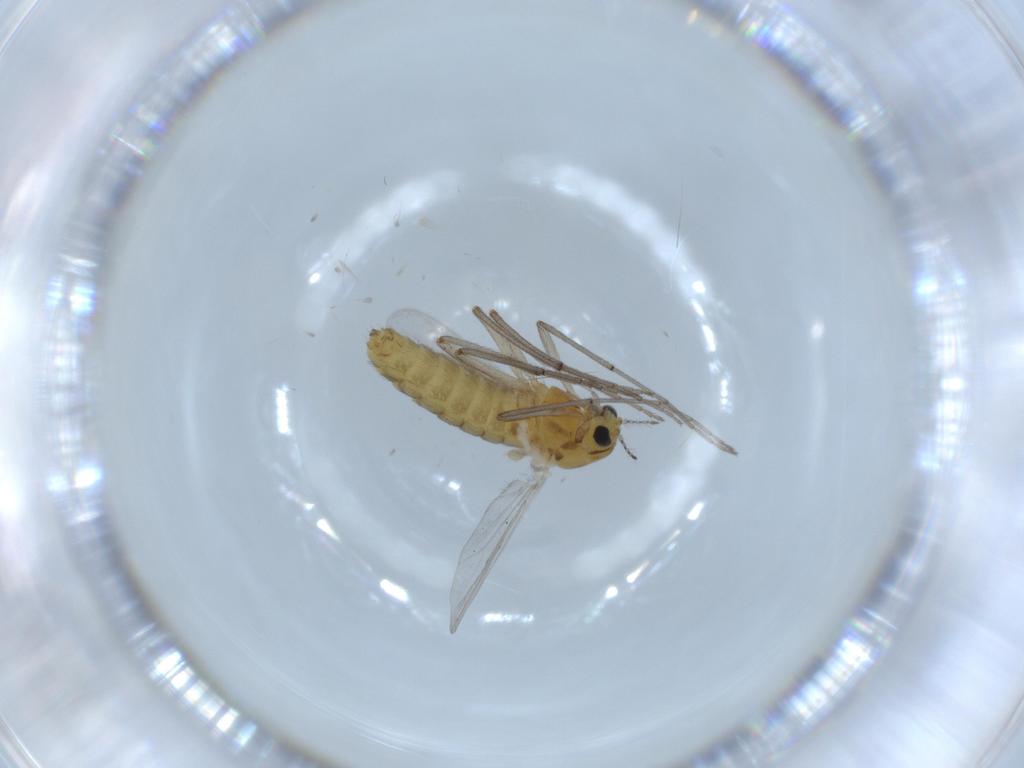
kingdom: Animalia
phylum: Arthropoda
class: Insecta
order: Diptera
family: Chironomidae
